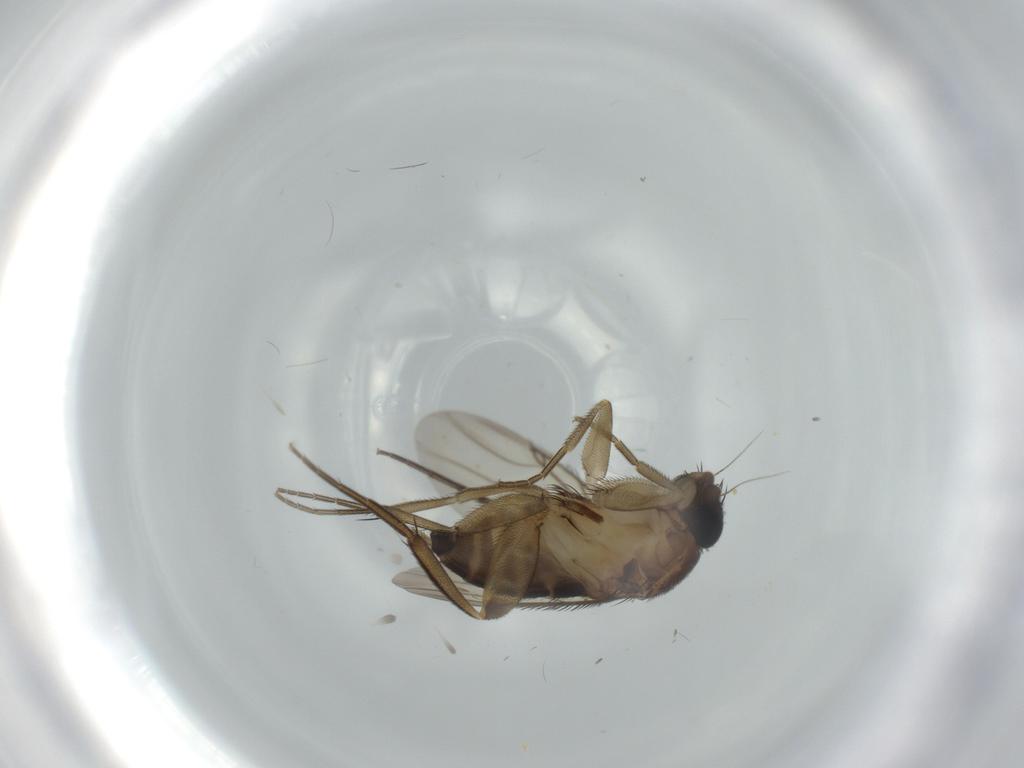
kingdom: Animalia
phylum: Arthropoda
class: Insecta
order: Diptera
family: Phoridae
